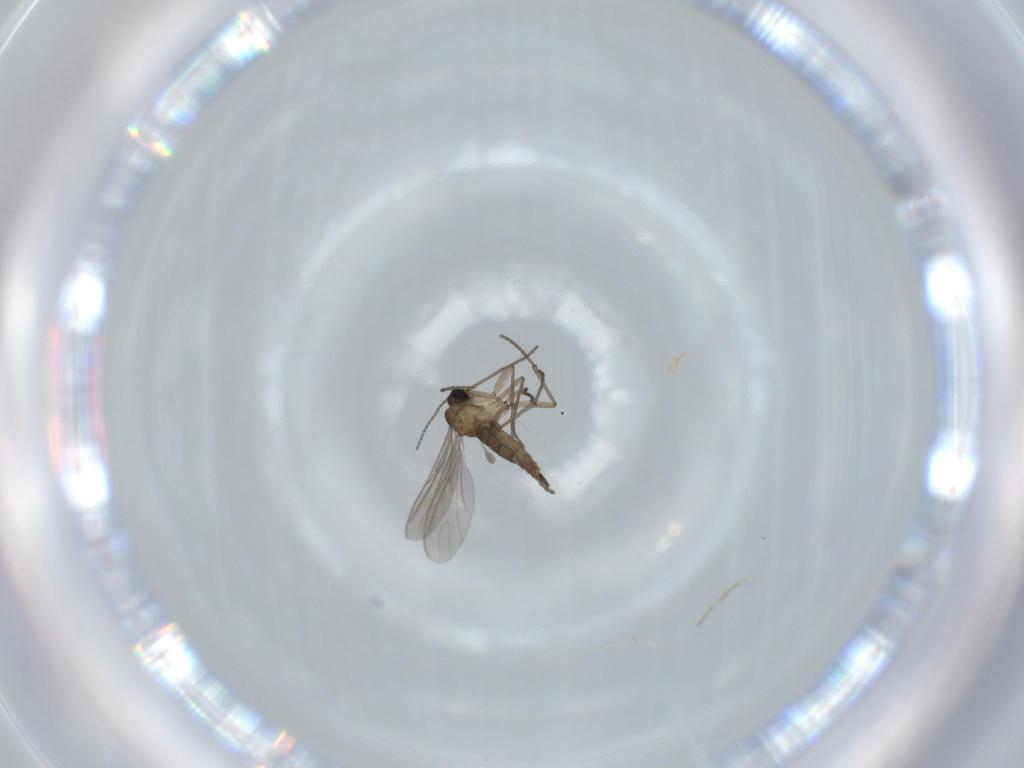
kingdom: Animalia
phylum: Arthropoda
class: Insecta
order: Diptera
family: Sciaridae
